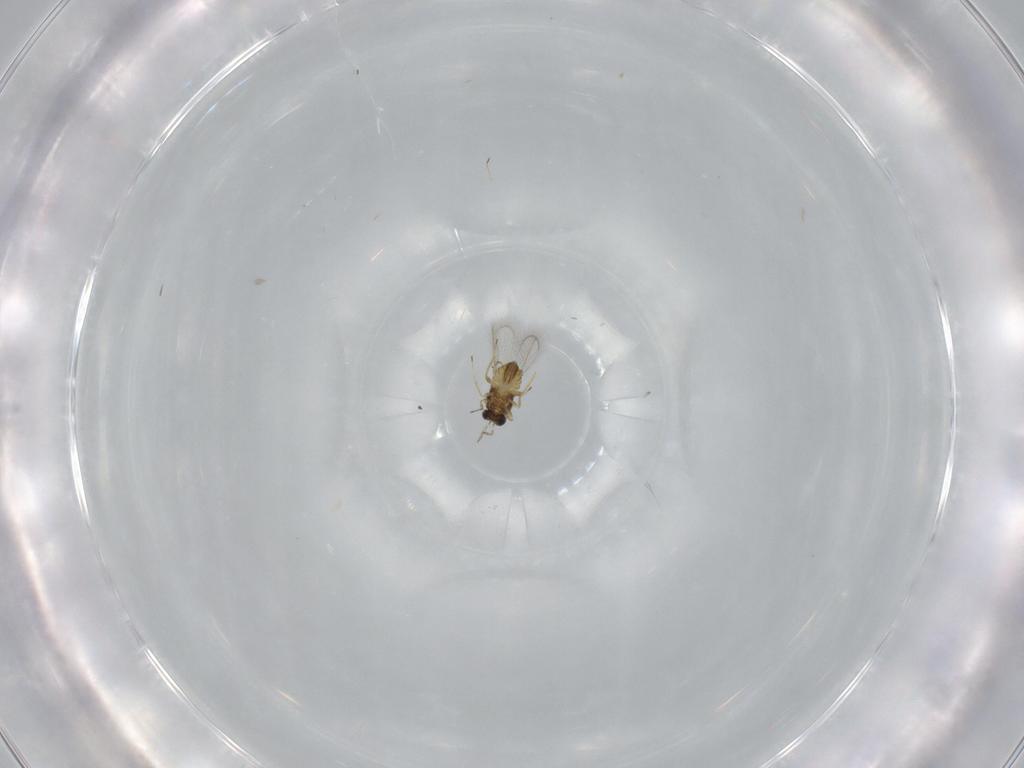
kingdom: Animalia
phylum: Arthropoda
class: Insecta
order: Hymenoptera
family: Trichogrammatidae
